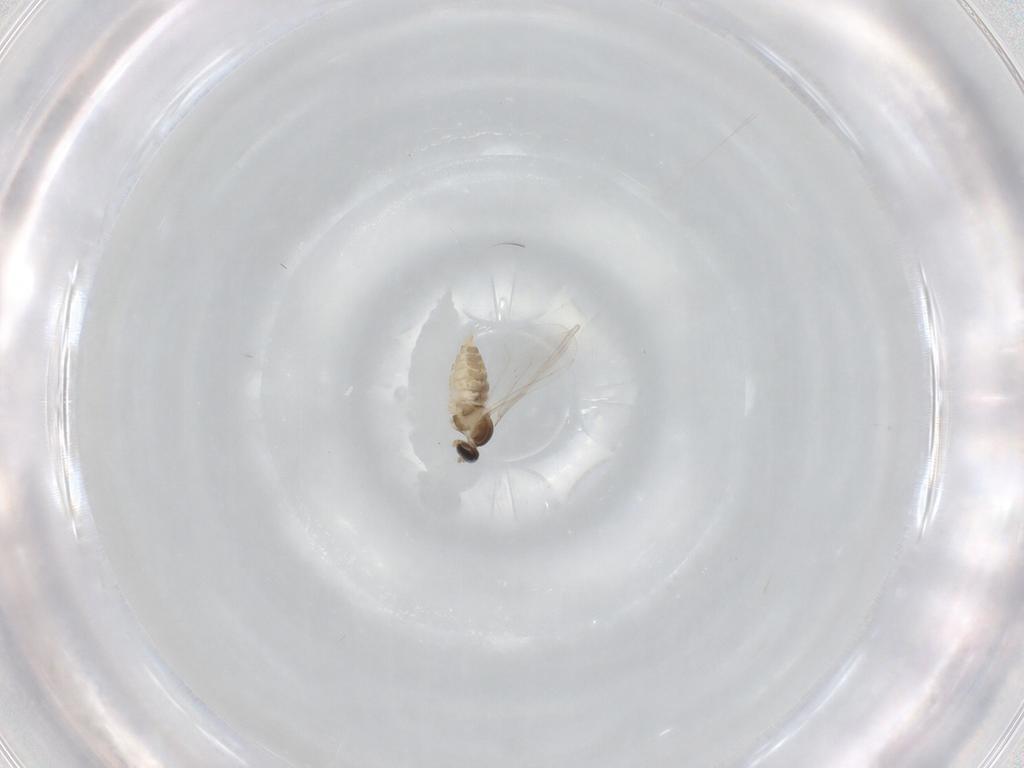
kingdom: Animalia
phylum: Arthropoda
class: Insecta
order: Diptera
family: Cecidomyiidae
